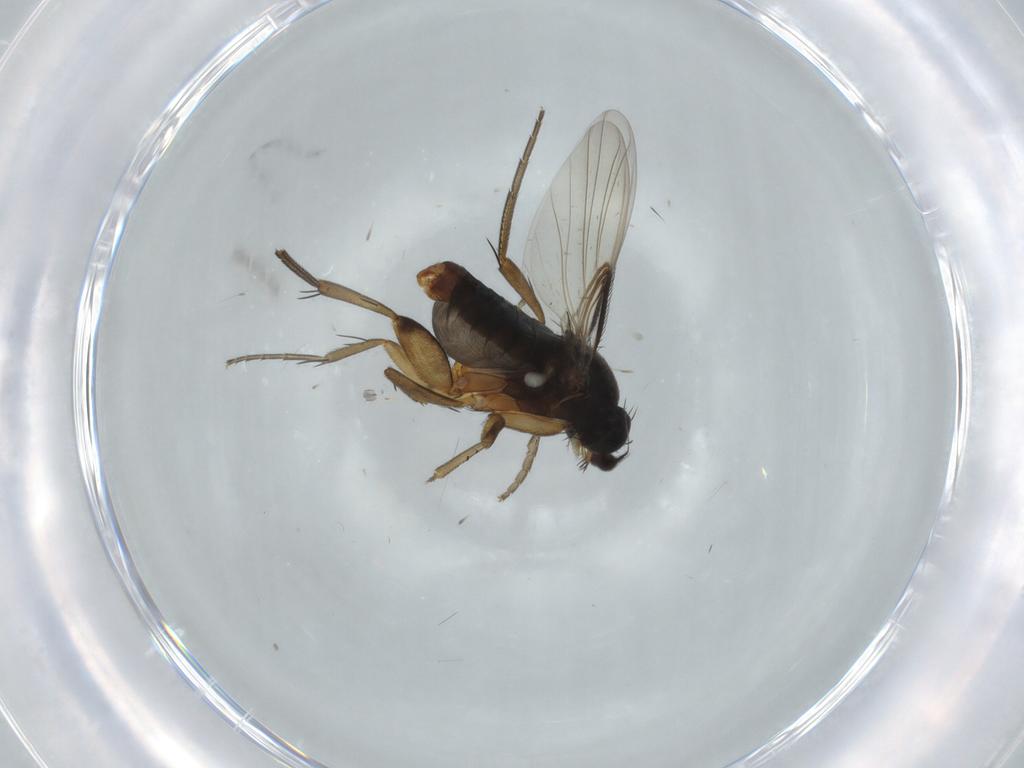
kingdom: Animalia
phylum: Arthropoda
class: Insecta
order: Diptera
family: Phoridae
